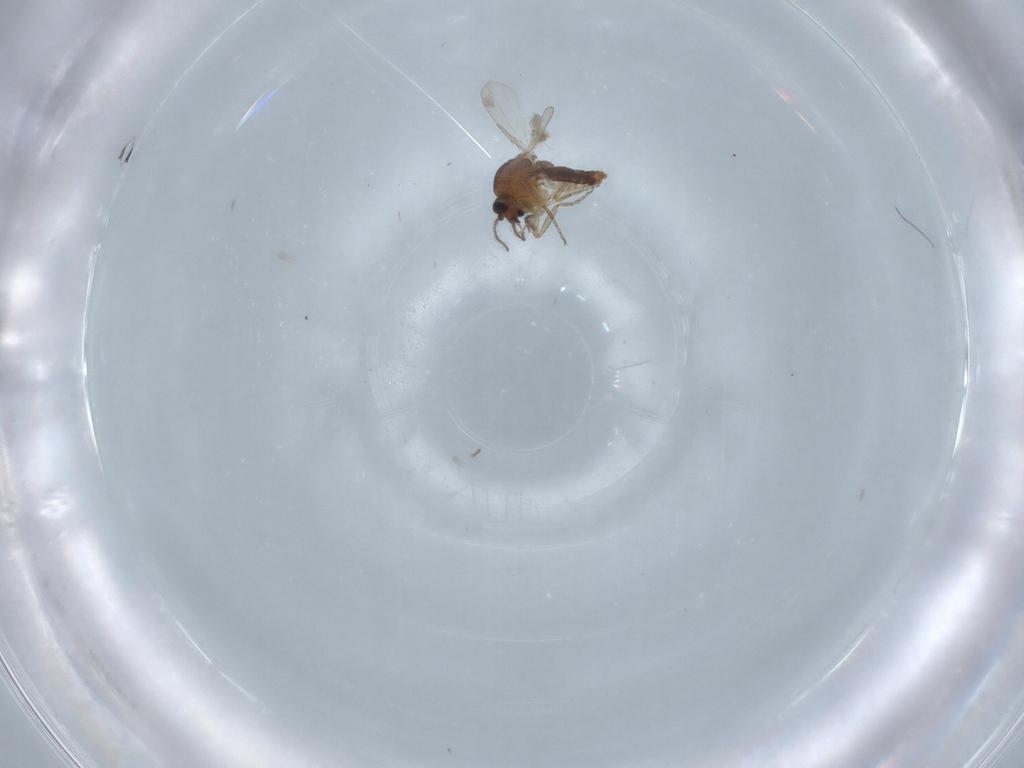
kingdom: Animalia
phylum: Arthropoda
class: Insecta
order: Diptera
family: Ceratopogonidae
